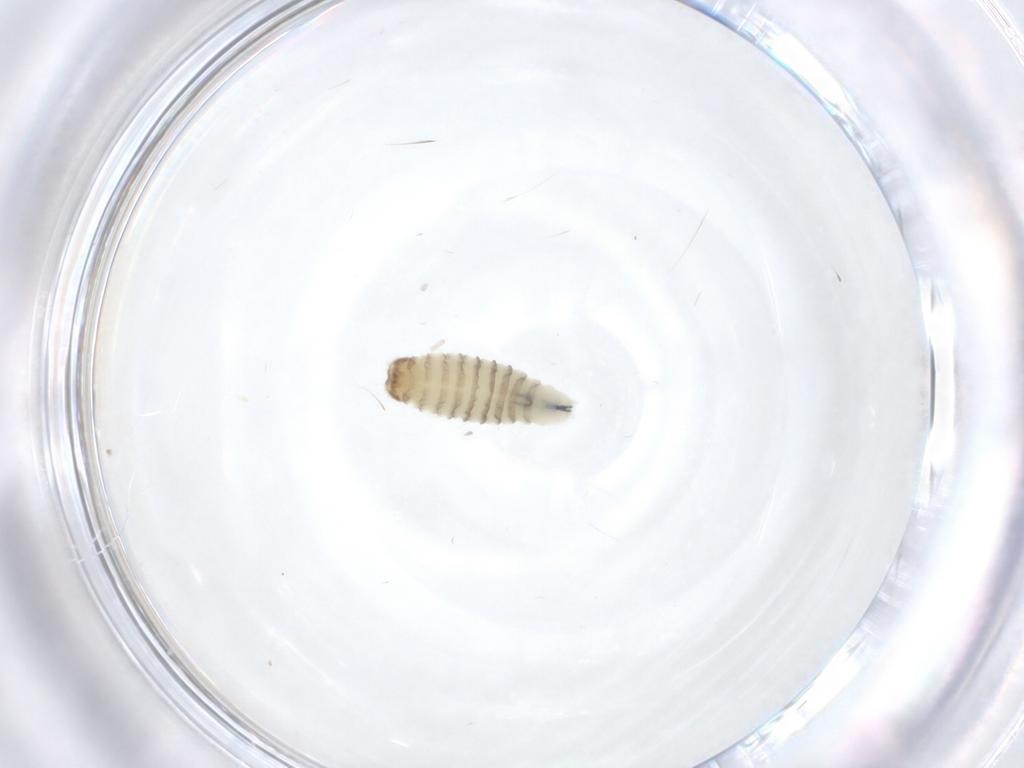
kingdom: Animalia
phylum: Arthropoda
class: Insecta
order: Diptera
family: Sarcophagidae
